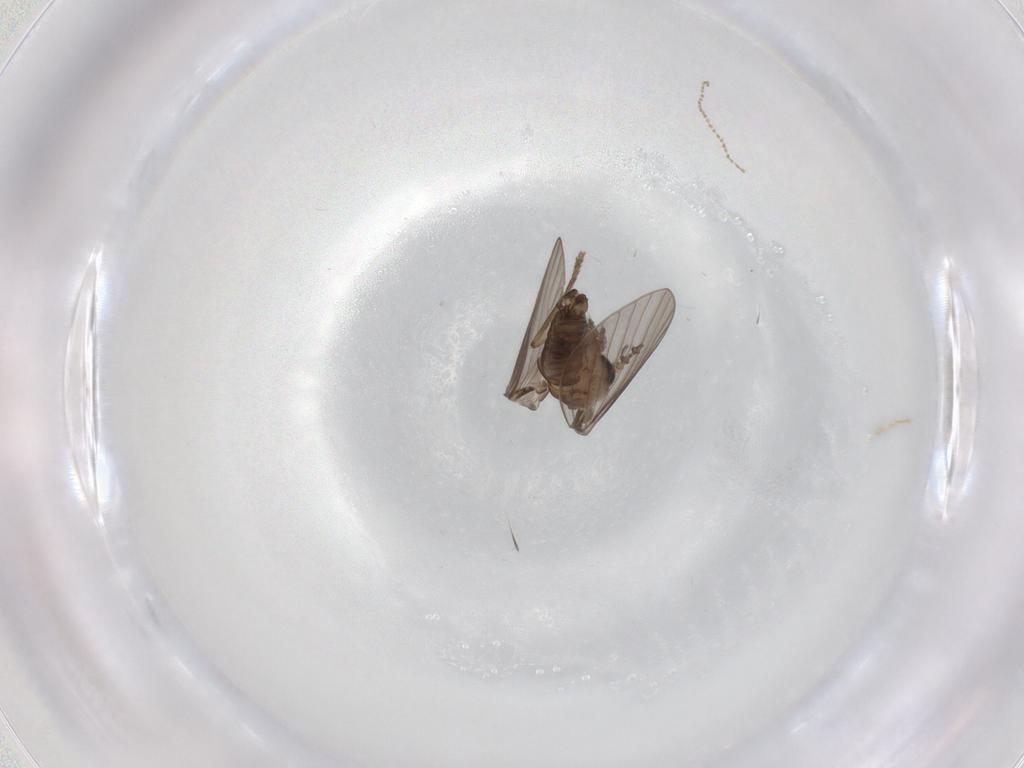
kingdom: Animalia
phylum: Arthropoda
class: Insecta
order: Diptera
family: Psychodidae
